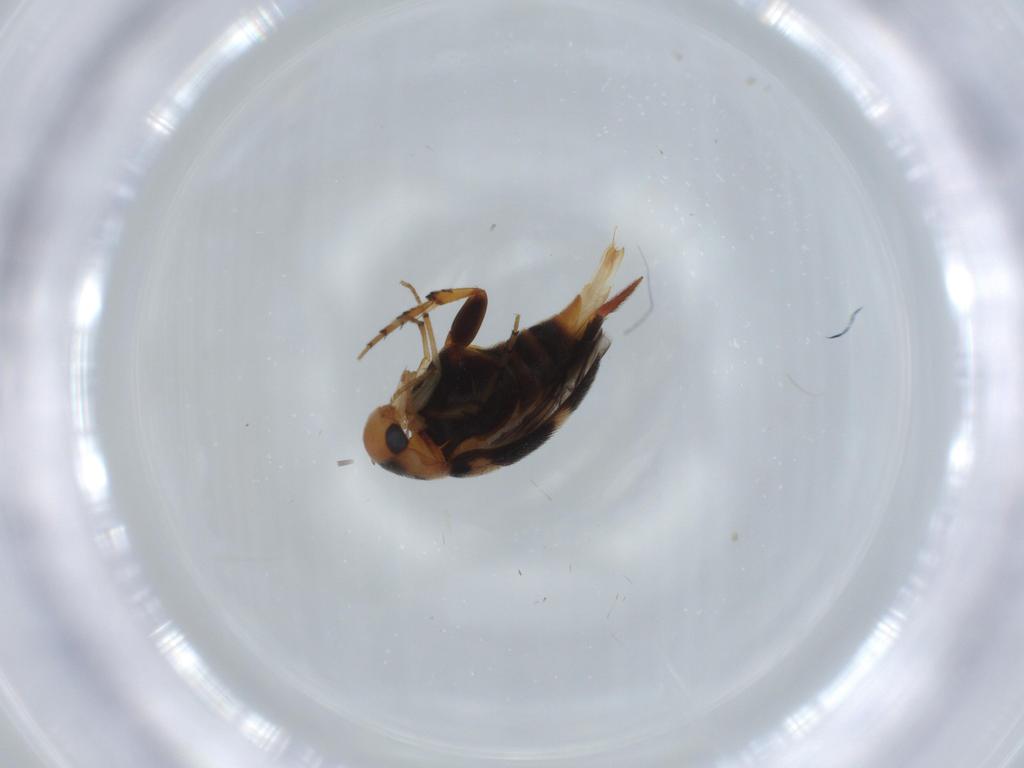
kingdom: Animalia
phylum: Arthropoda
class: Insecta
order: Coleoptera
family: Mordellidae
